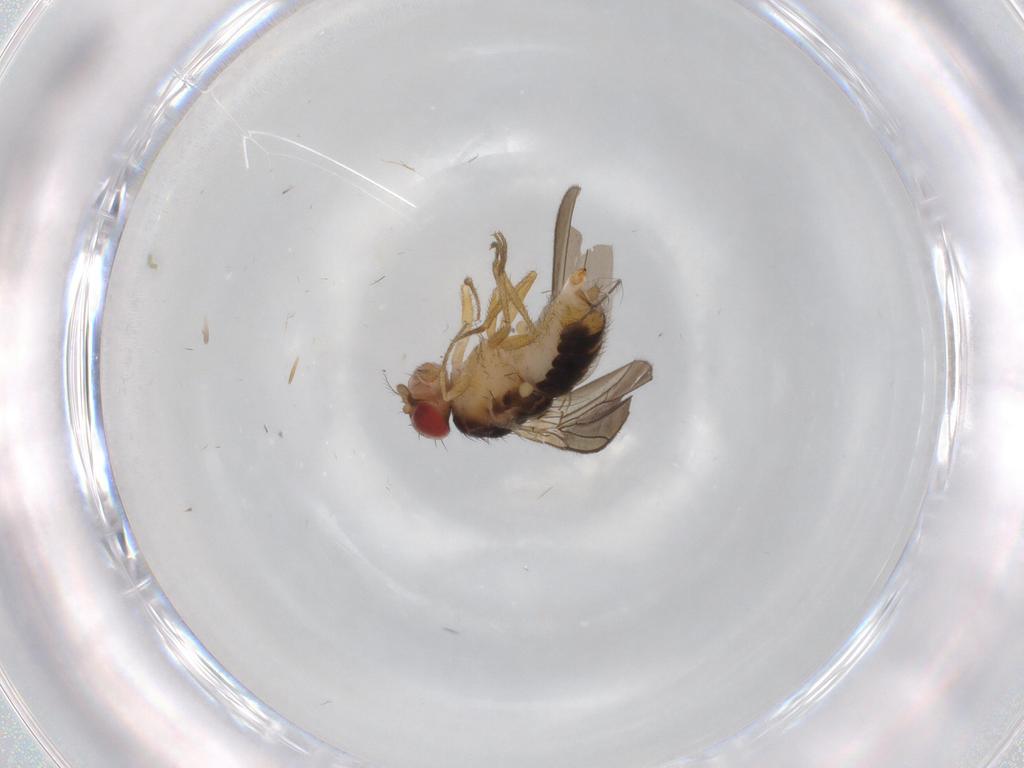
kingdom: Animalia
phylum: Arthropoda
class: Insecta
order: Diptera
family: Drosophilidae
